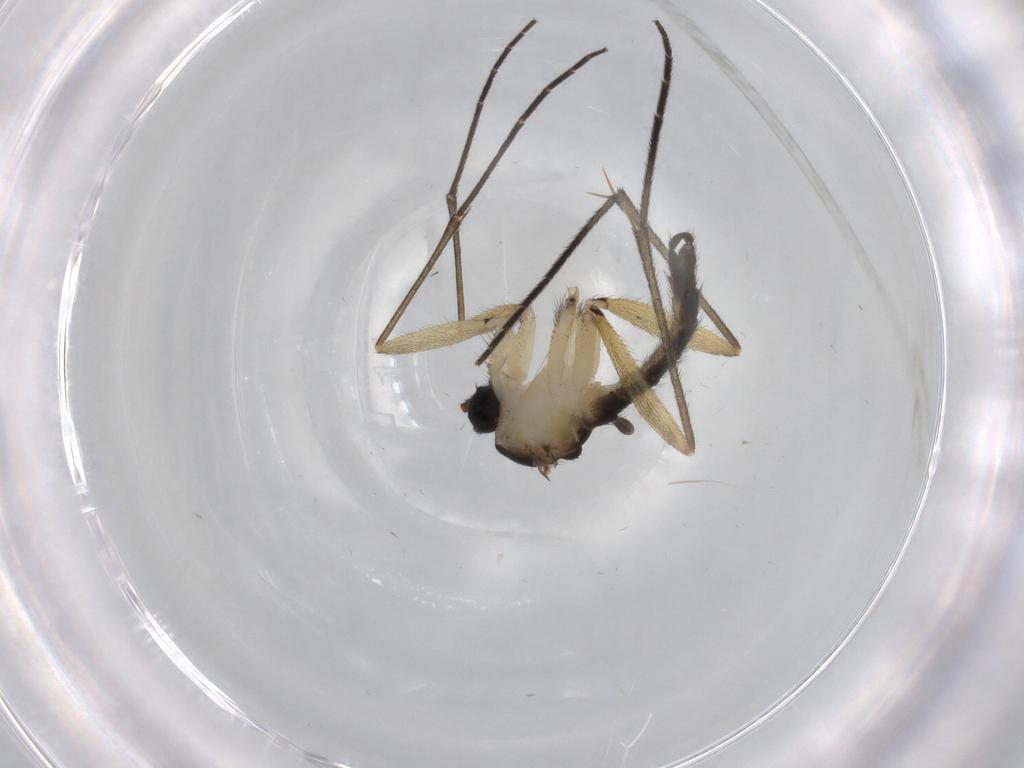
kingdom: Animalia
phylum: Arthropoda
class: Insecta
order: Diptera
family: Sciaridae
